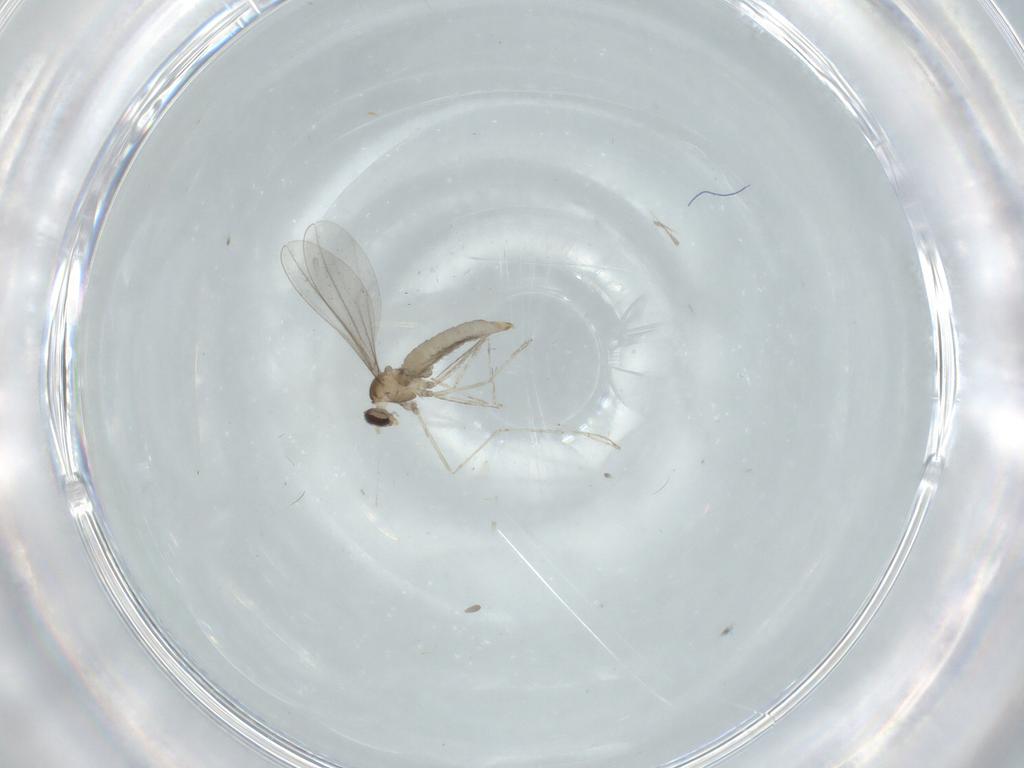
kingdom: Animalia
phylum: Arthropoda
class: Insecta
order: Diptera
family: Cecidomyiidae
